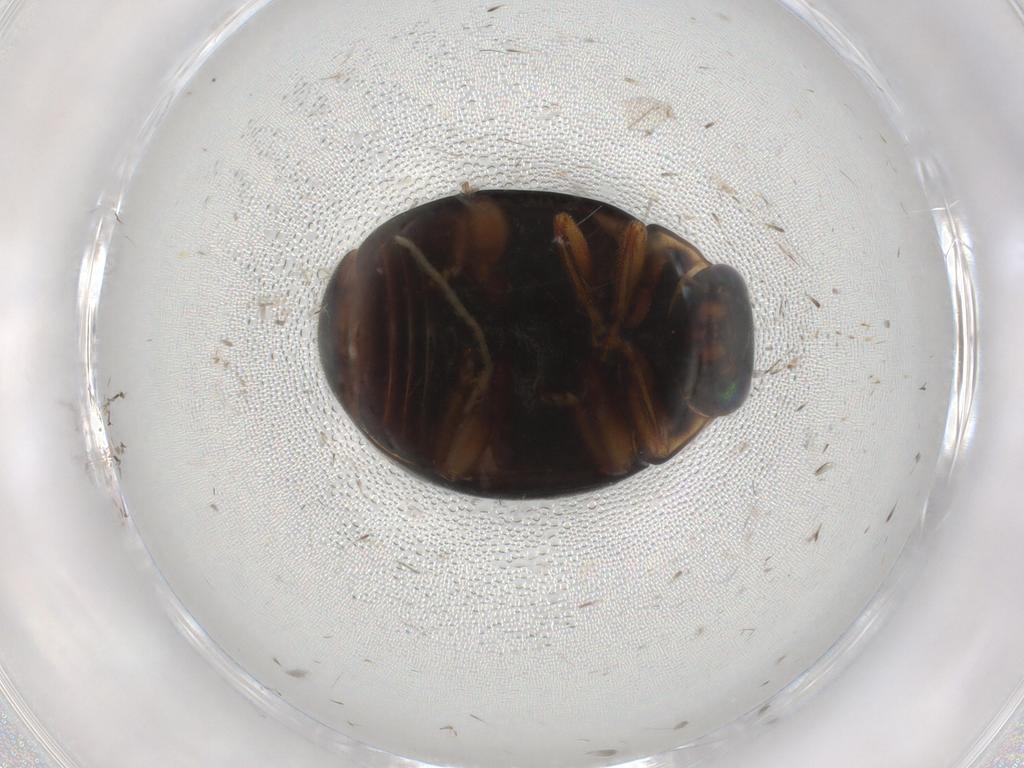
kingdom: Animalia
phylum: Arthropoda
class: Insecta
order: Coleoptera
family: Coccinellidae
